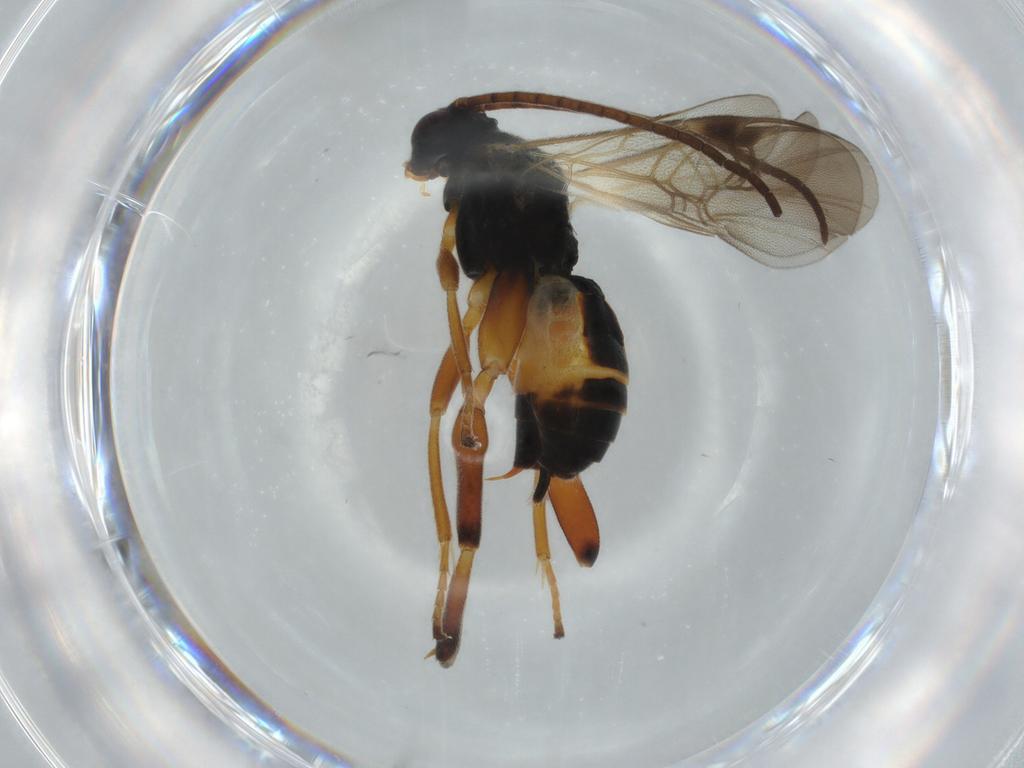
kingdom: Animalia
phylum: Arthropoda
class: Insecta
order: Hymenoptera
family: Braconidae
